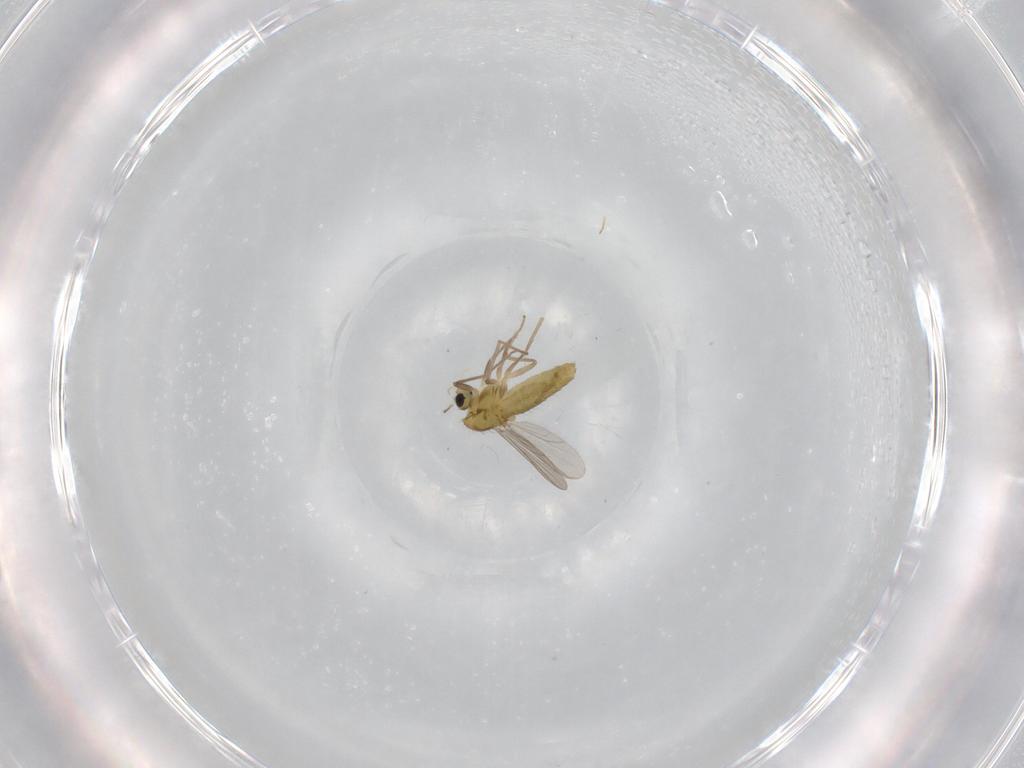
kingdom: Animalia
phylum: Arthropoda
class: Insecta
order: Diptera
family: Chironomidae
